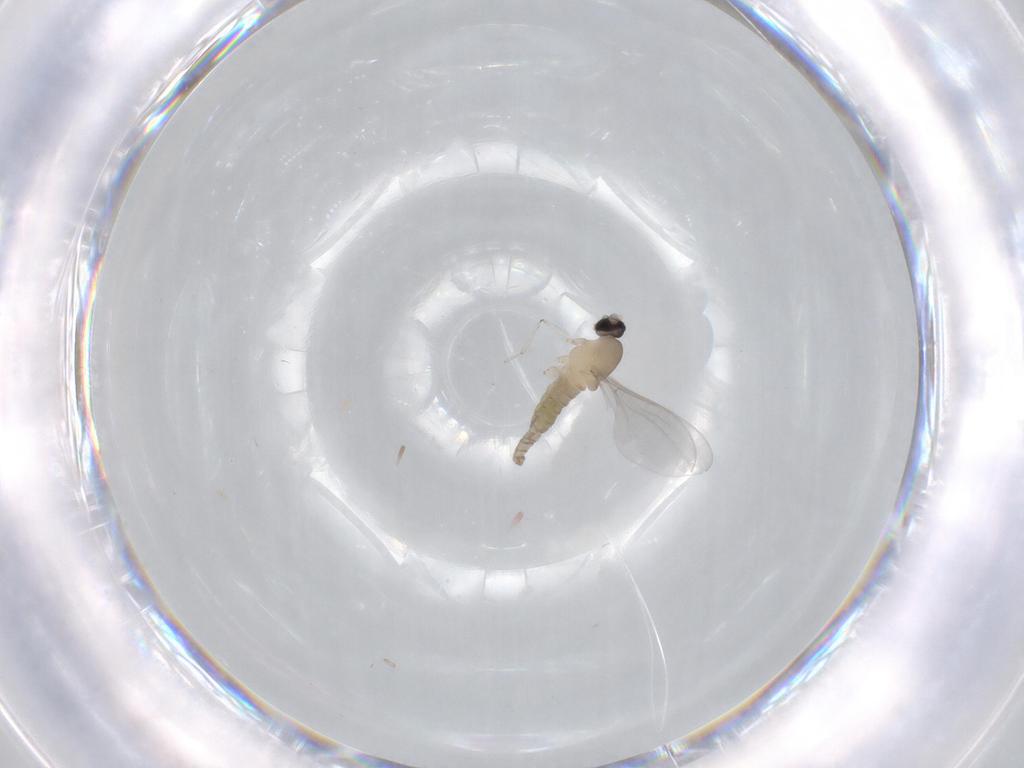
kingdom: Animalia
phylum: Arthropoda
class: Insecta
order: Diptera
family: Cecidomyiidae
